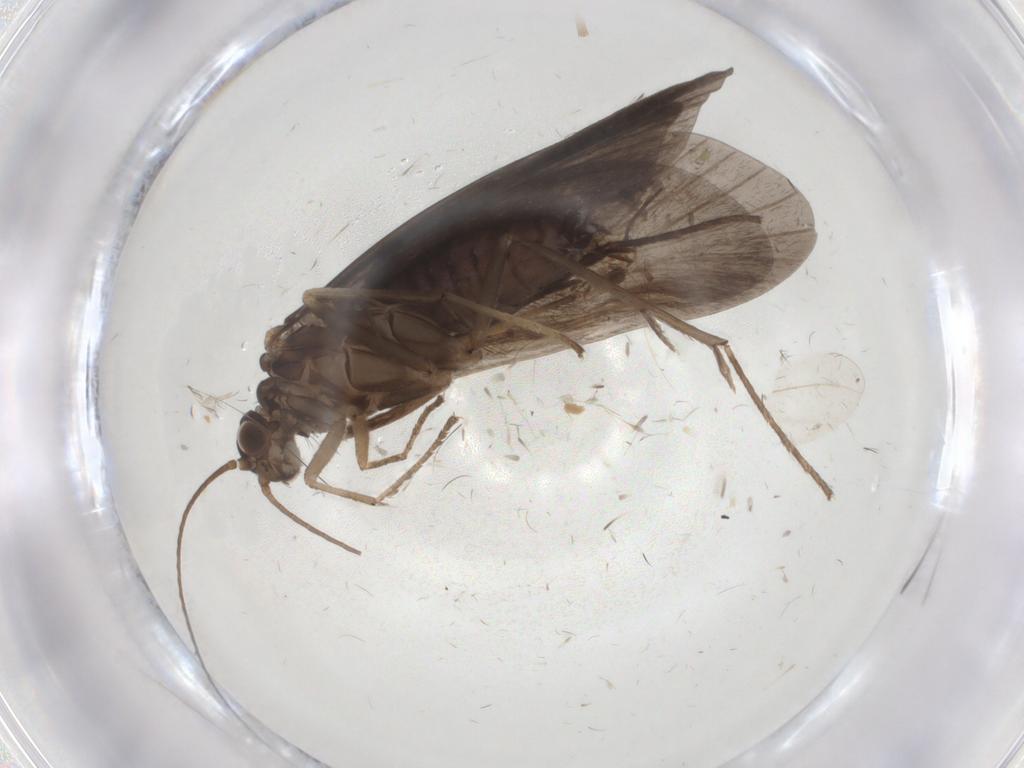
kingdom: Animalia
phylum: Arthropoda
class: Insecta
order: Trichoptera
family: Hydropsychidae
